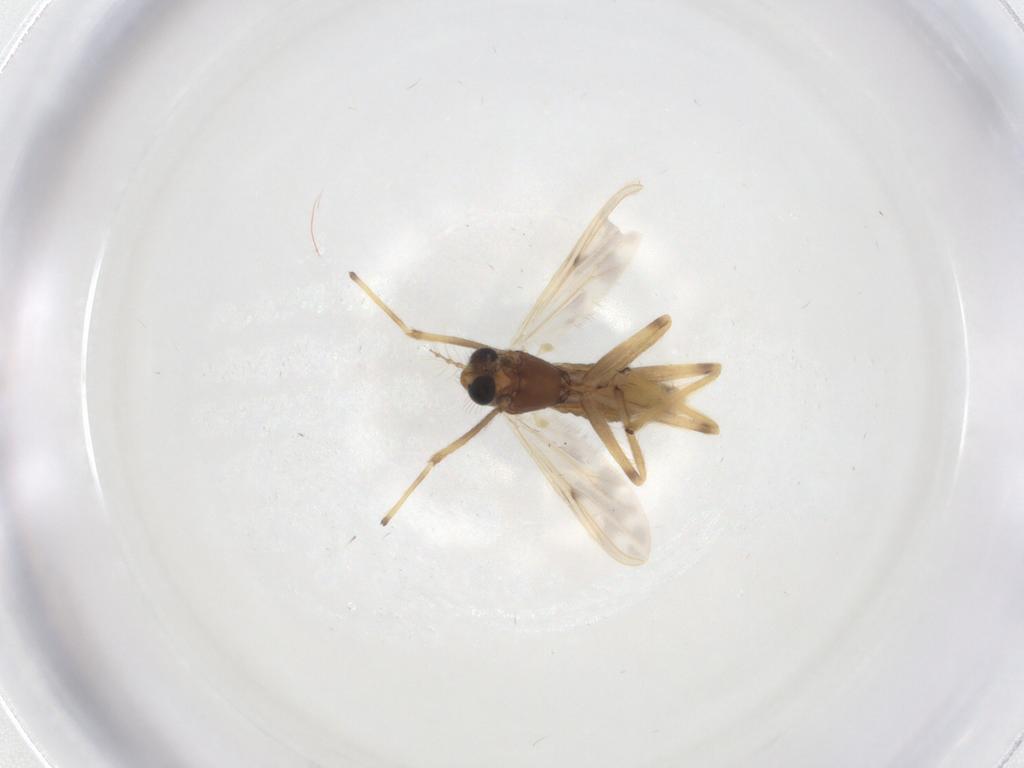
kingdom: Animalia
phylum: Arthropoda
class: Insecta
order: Diptera
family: Chironomidae
